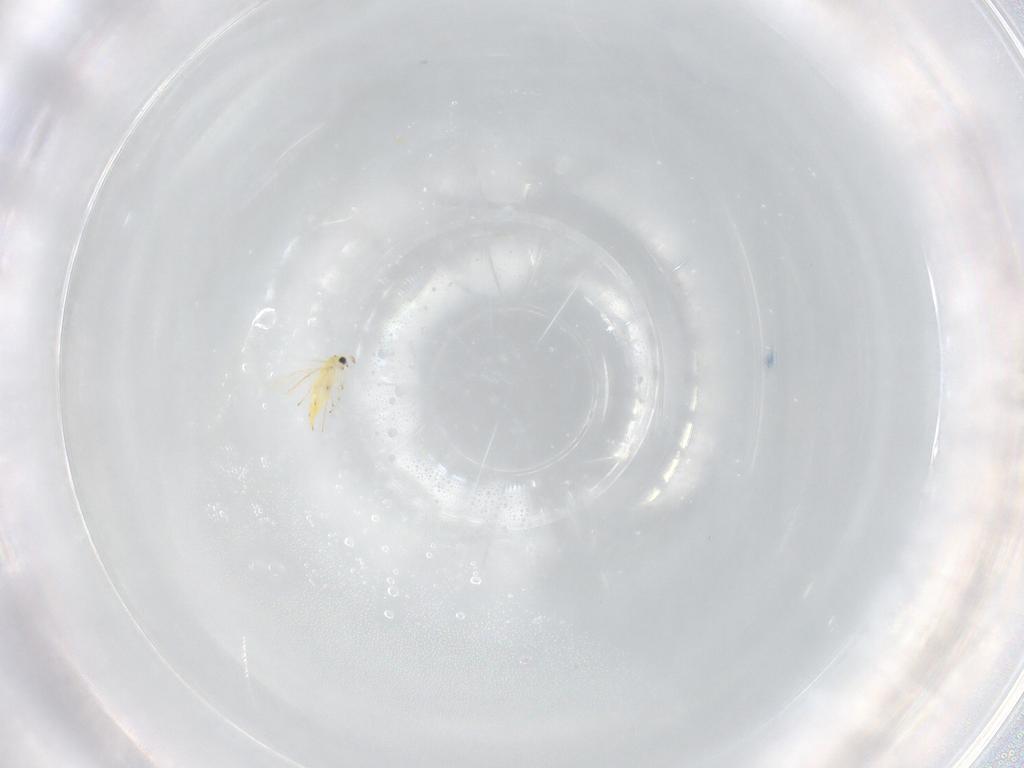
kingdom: Animalia
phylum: Arthropoda
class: Insecta
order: Hymenoptera
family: Trichogrammatidae
